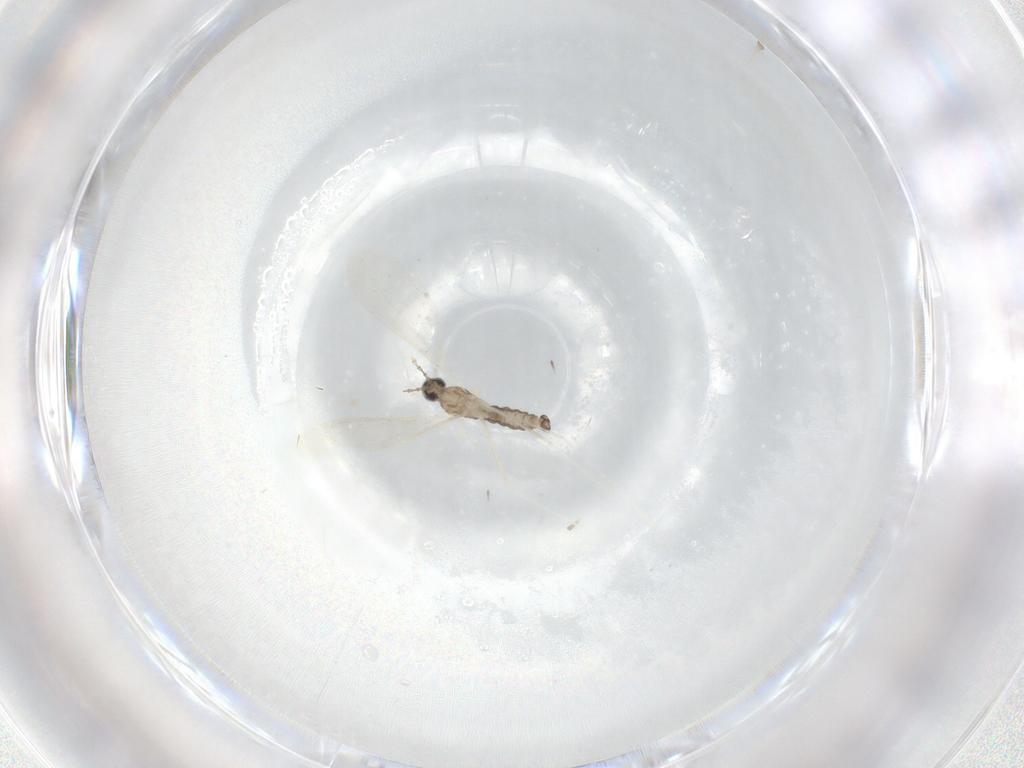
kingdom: Animalia
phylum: Arthropoda
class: Insecta
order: Diptera
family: Cecidomyiidae
